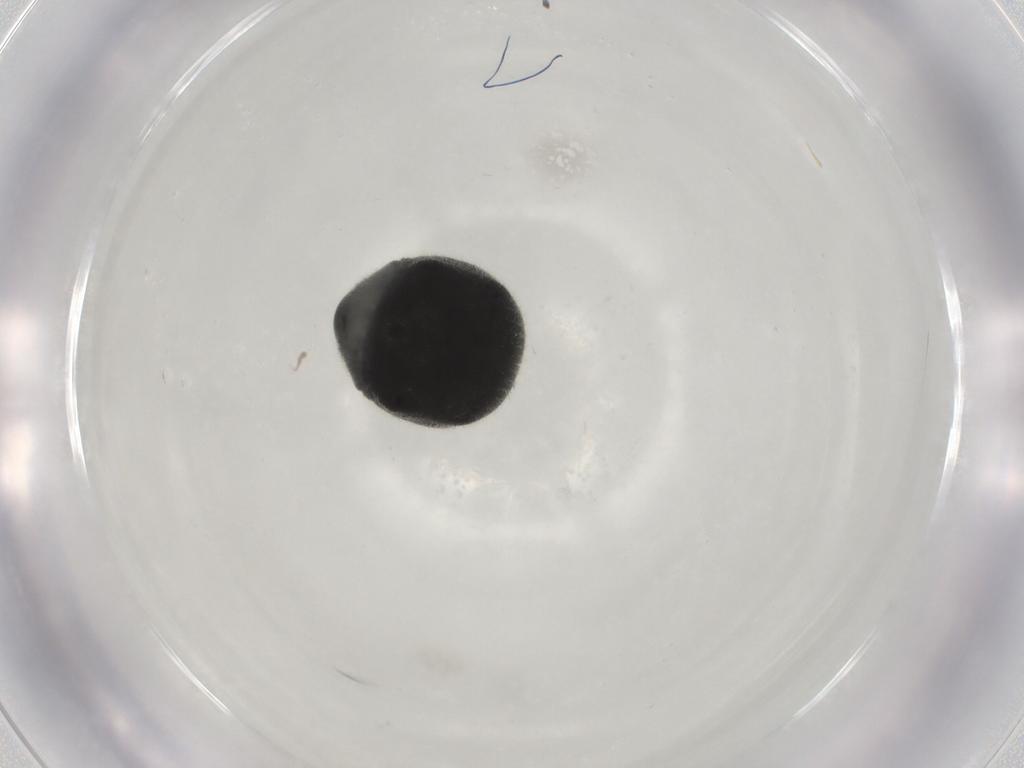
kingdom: Animalia
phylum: Arthropoda
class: Insecta
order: Coleoptera
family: Ptinidae
